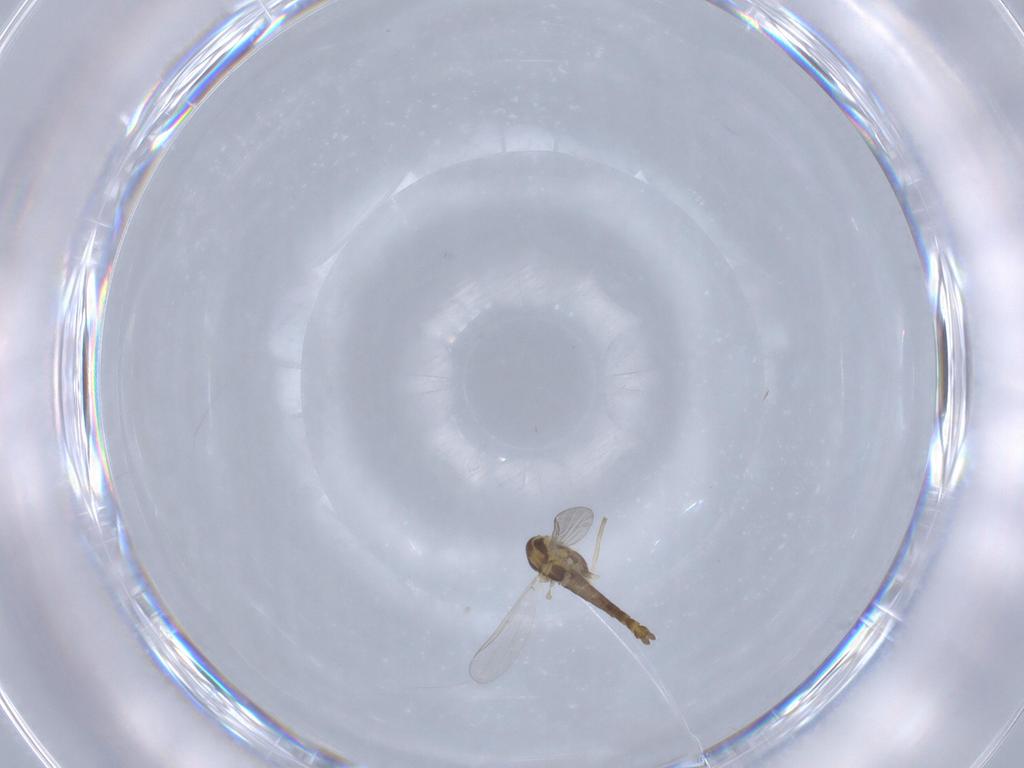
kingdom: Animalia
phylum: Arthropoda
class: Insecta
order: Diptera
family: Chironomidae
